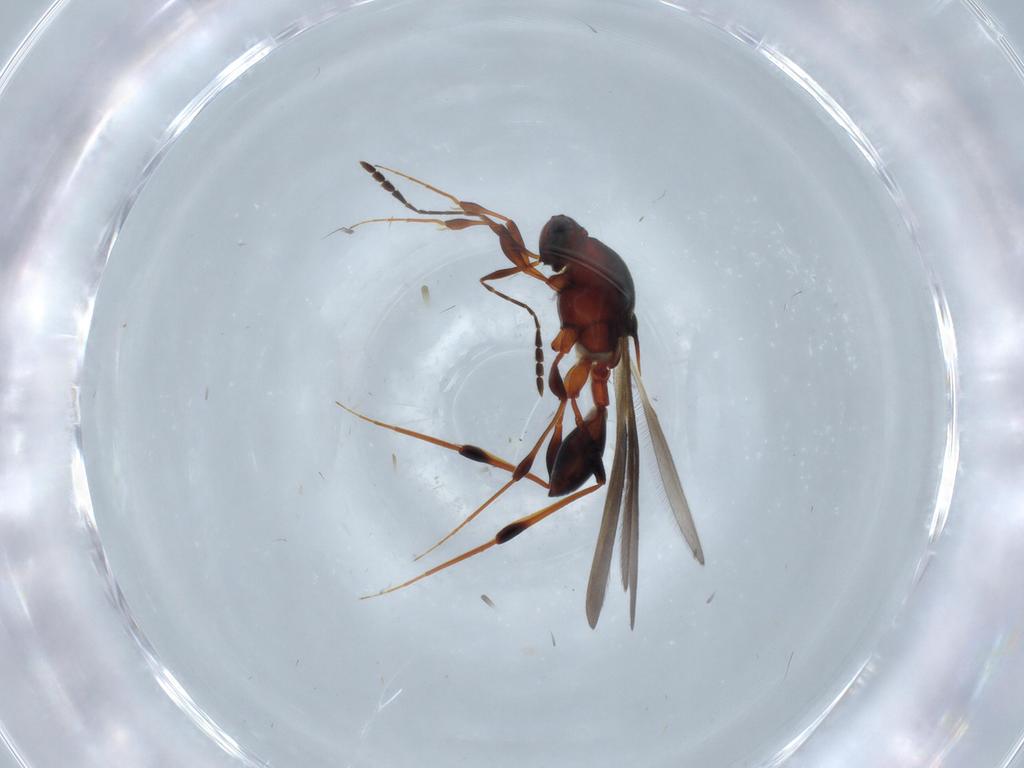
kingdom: Animalia
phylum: Arthropoda
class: Insecta
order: Hymenoptera
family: Platygastridae
